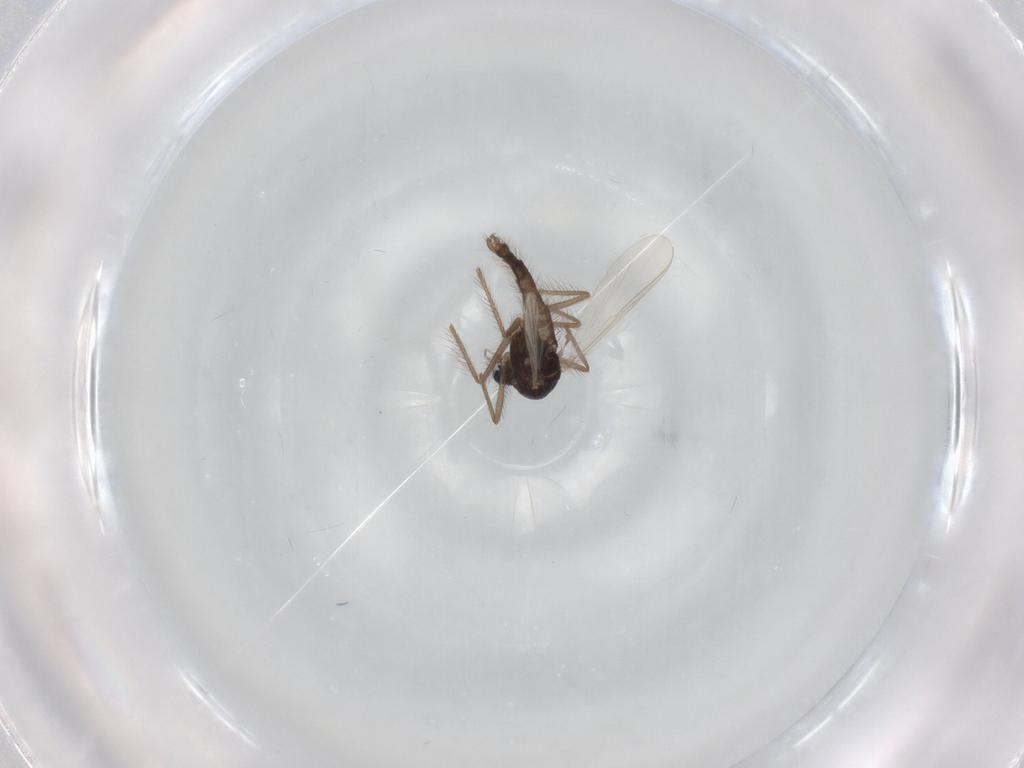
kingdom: Animalia
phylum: Arthropoda
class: Insecta
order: Diptera
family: Chironomidae
